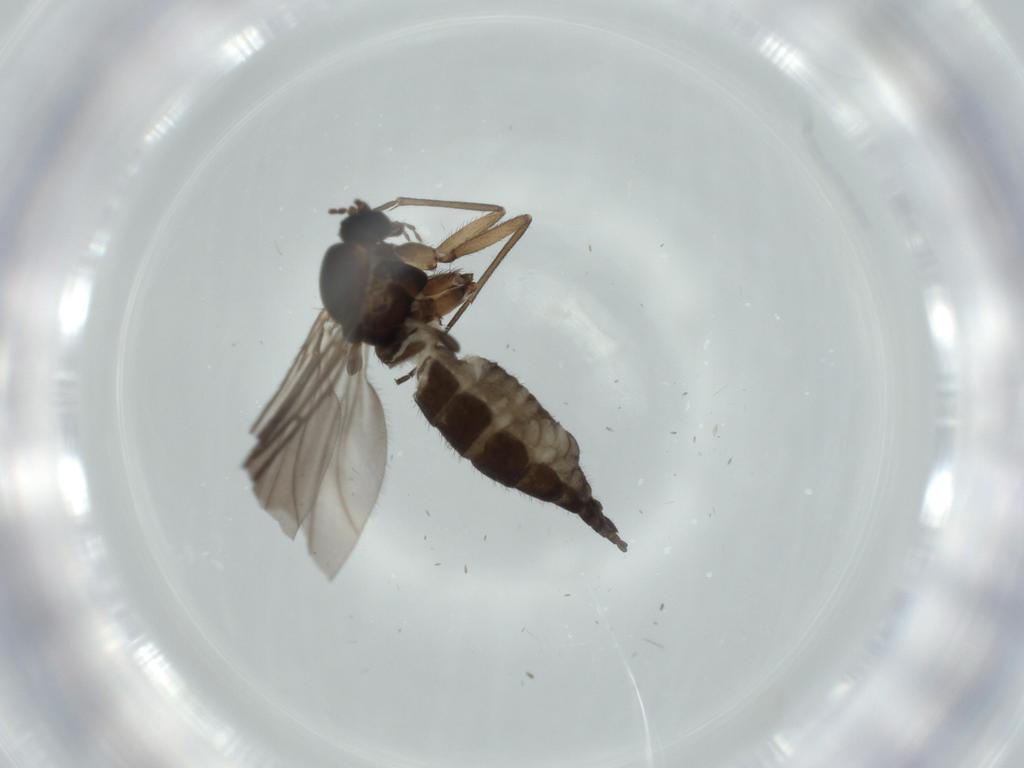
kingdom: Animalia
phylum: Arthropoda
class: Insecta
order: Diptera
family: Sciaridae
